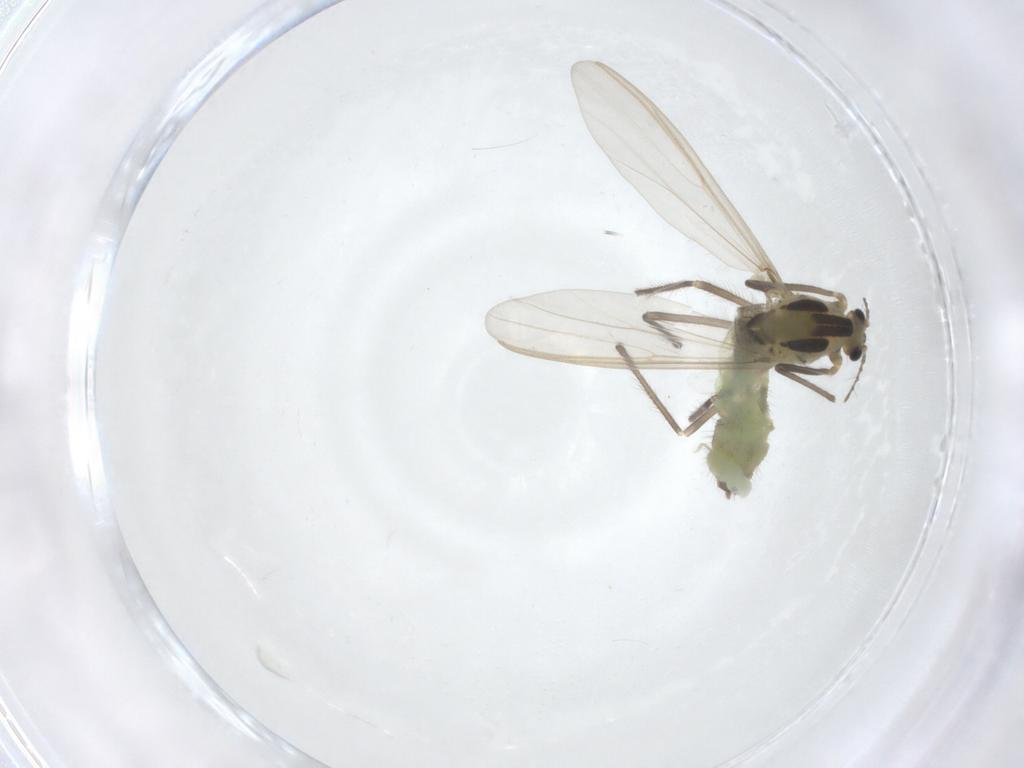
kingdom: Animalia
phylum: Arthropoda
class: Insecta
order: Diptera
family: Chironomidae
